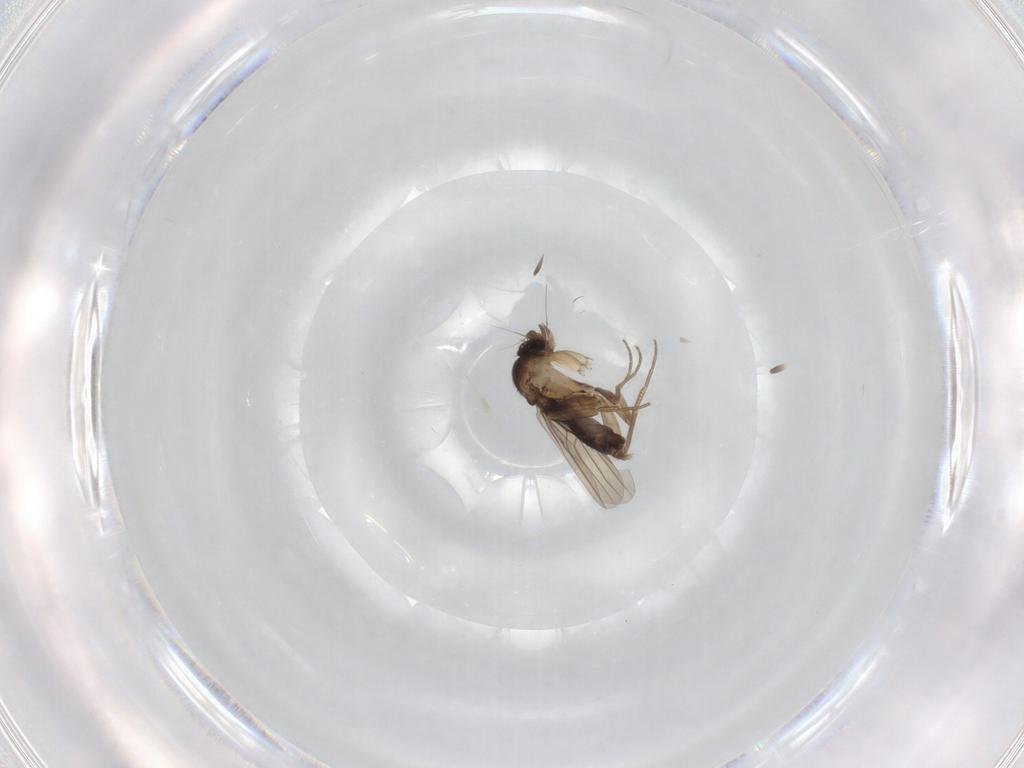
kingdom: Animalia
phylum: Arthropoda
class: Insecta
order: Diptera
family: Phoridae
